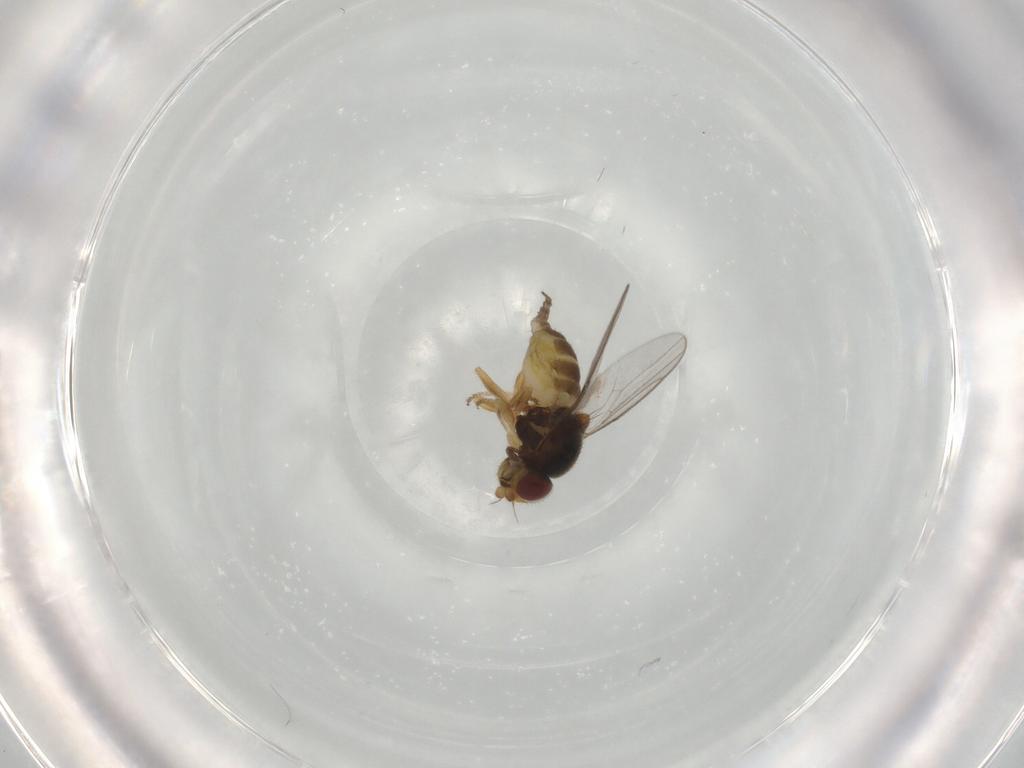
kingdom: Animalia
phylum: Arthropoda
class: Insecta
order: Diptera
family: Chloropidae
